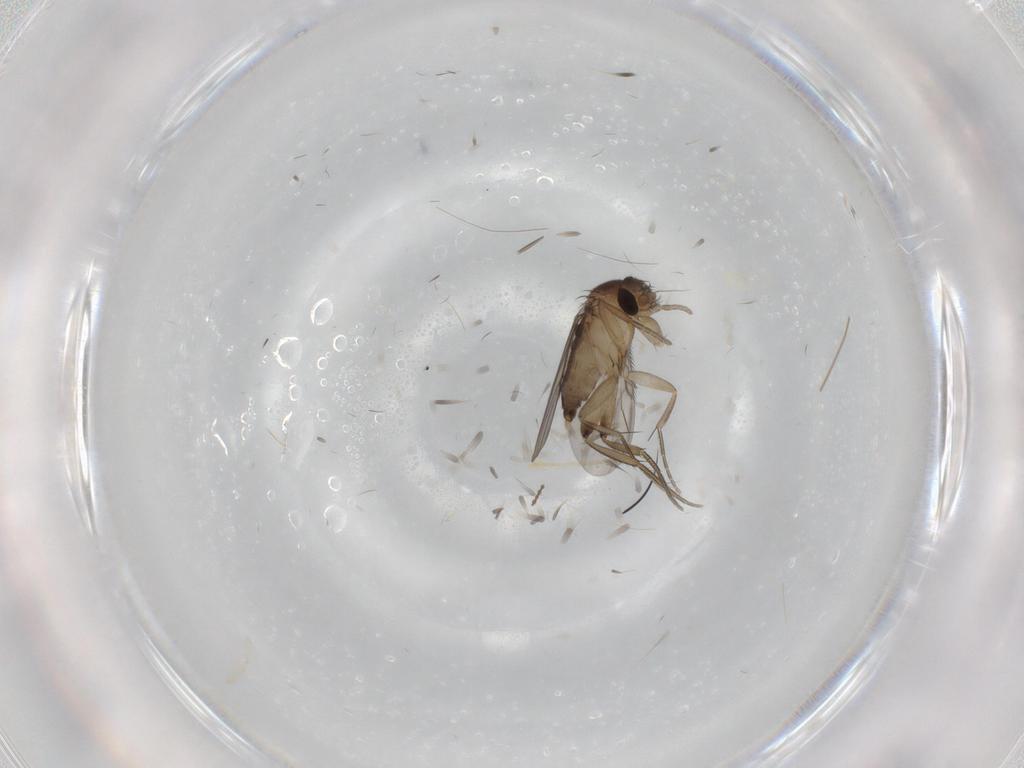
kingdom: Animalia
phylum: Arthropoda
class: Insecta
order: Diptera
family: Phoridae
